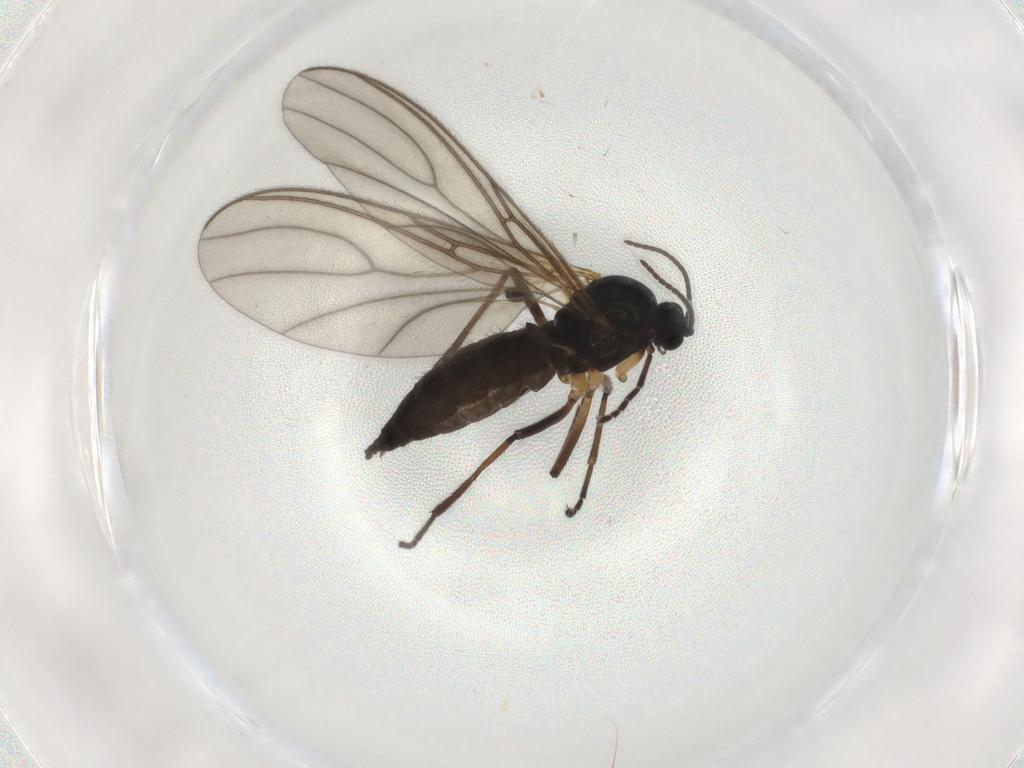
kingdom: Animalia
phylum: Arthropoda
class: Insecta
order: Diptera
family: Sciaridae
